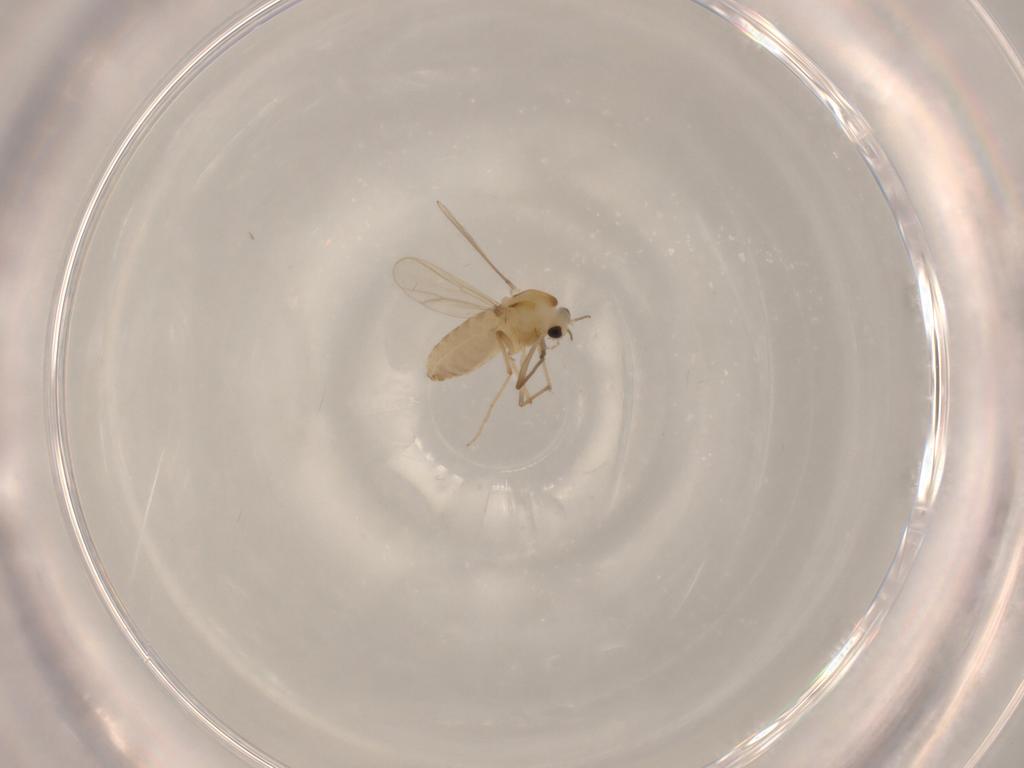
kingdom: Animalia
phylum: Arthropoda
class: Insecta
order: Diptera
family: Chironomidae
